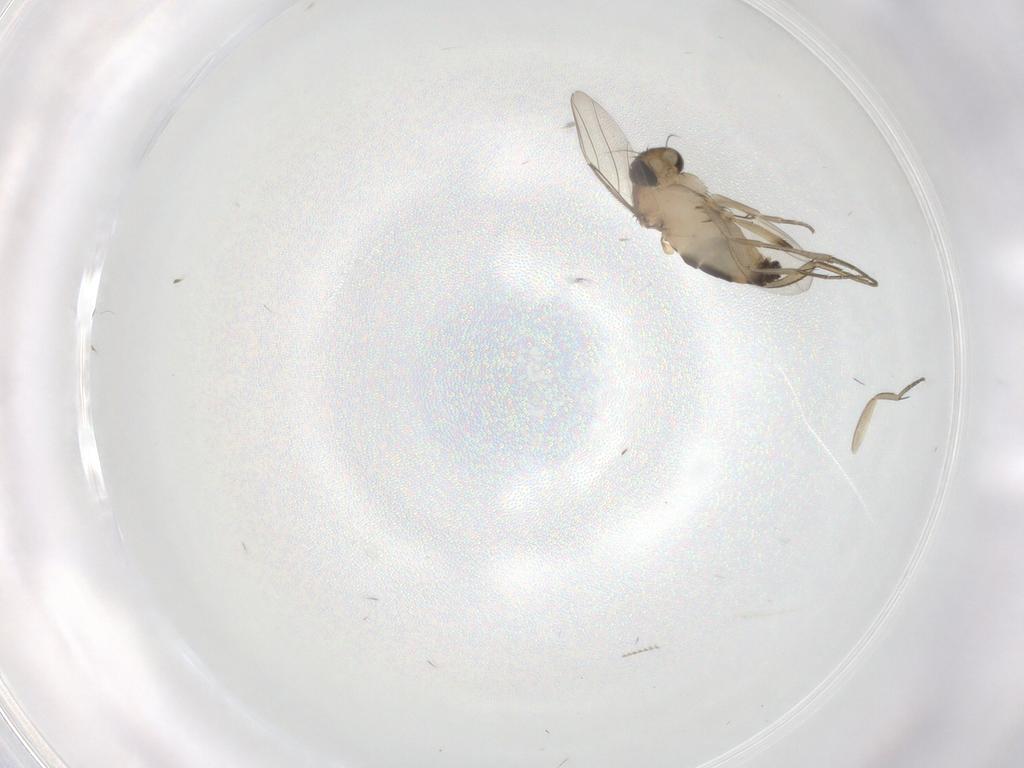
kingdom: Animalia
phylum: Arthropoda
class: Insecta
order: Diptera
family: Phoridae
